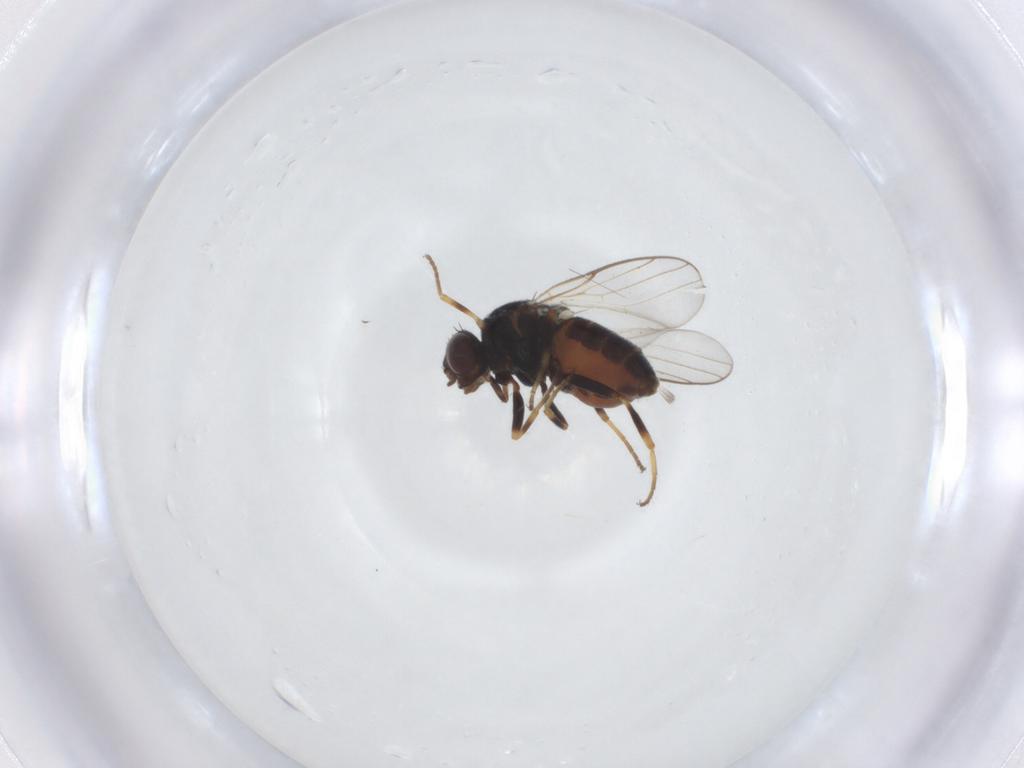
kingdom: Animalia
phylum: Arthropoda
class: Insecta
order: Diptera
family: Chloropidae
